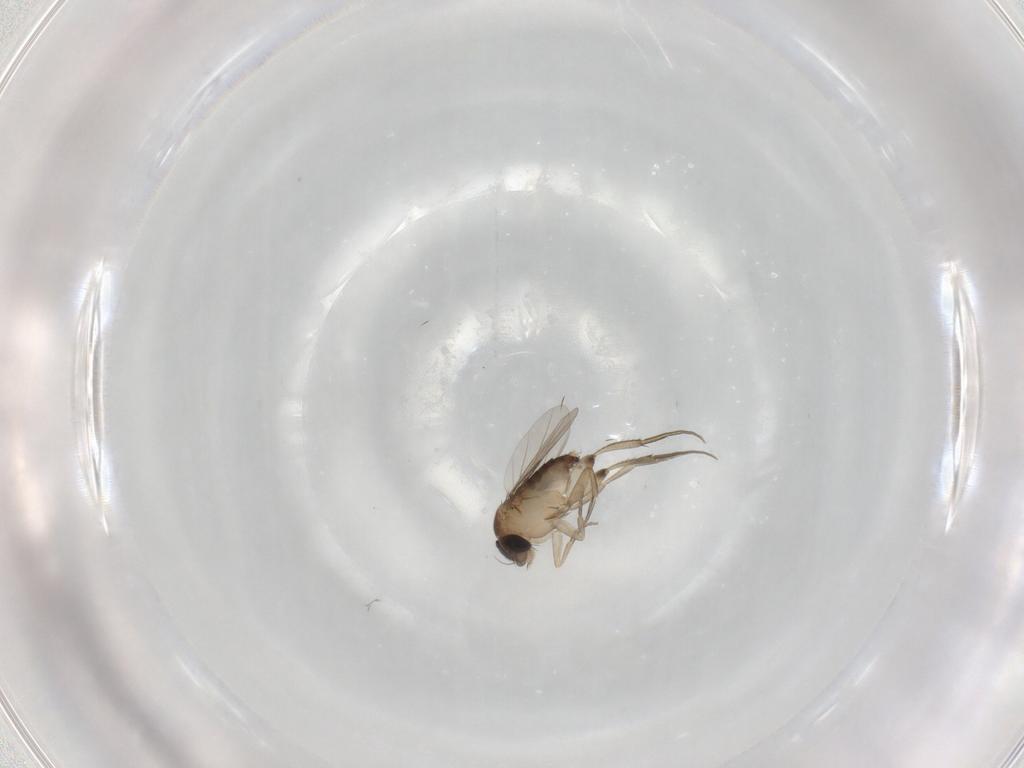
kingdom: Animalia
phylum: Arthropoda
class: Insecta
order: Diptera
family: Phoridae
